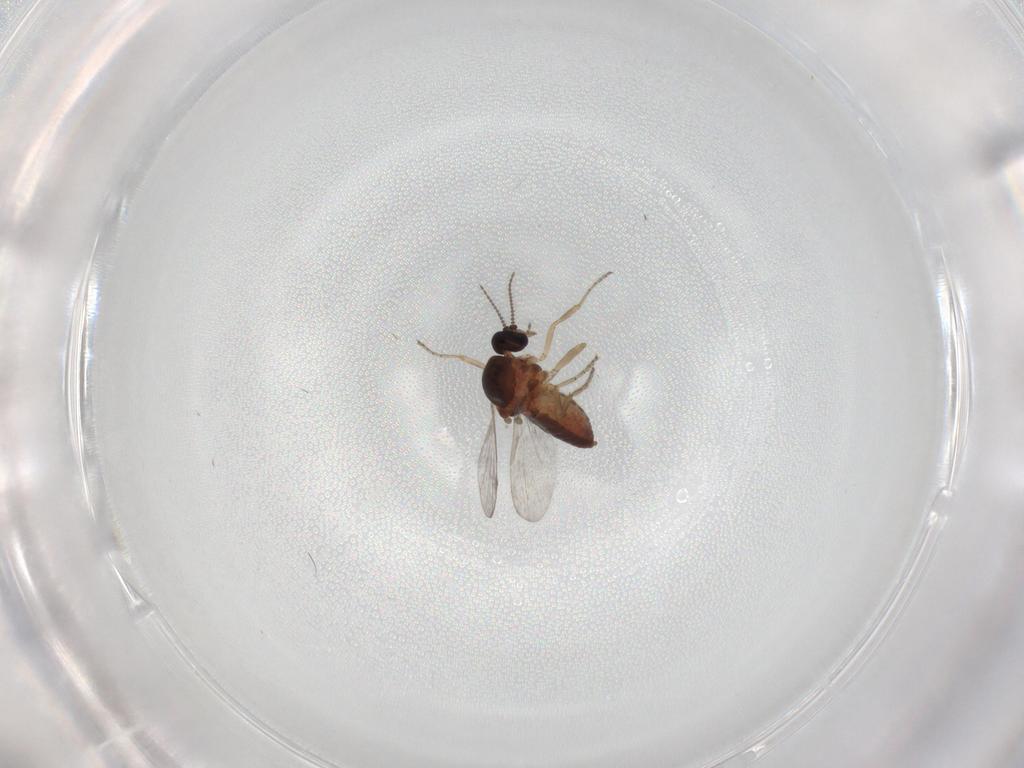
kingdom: Animalia
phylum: Arthropoda
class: Insecta
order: Diptera
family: Ceratopogonidae
